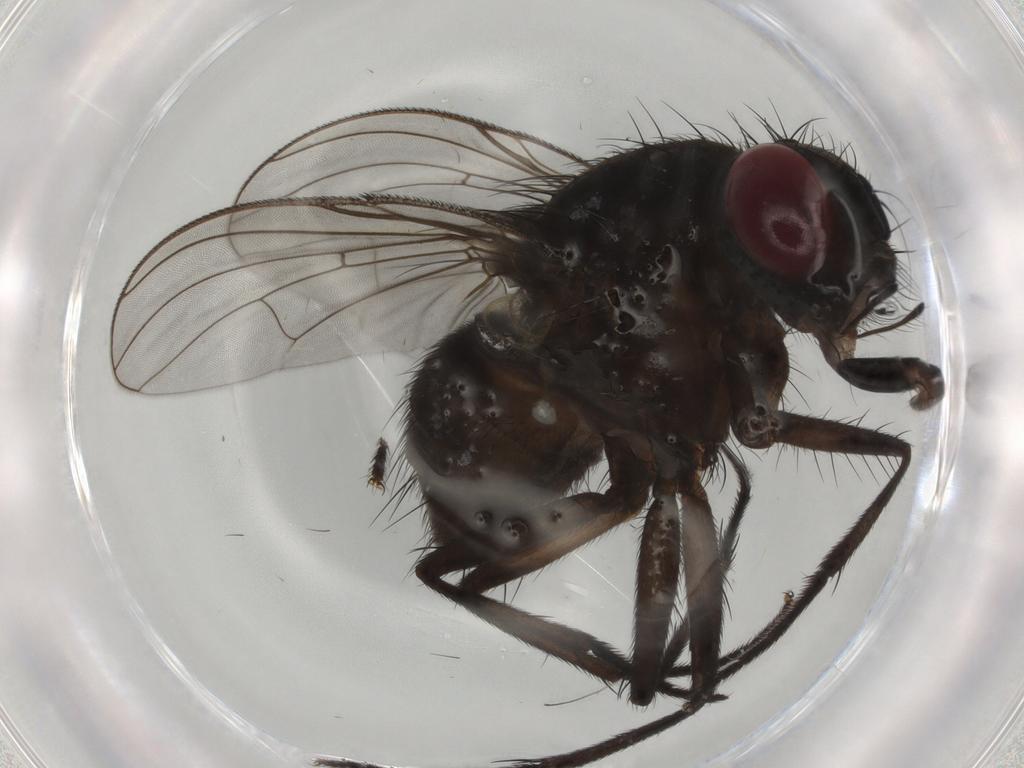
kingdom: Animalia
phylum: Arthropoda
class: Insecta
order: Diptera
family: Muscidae
